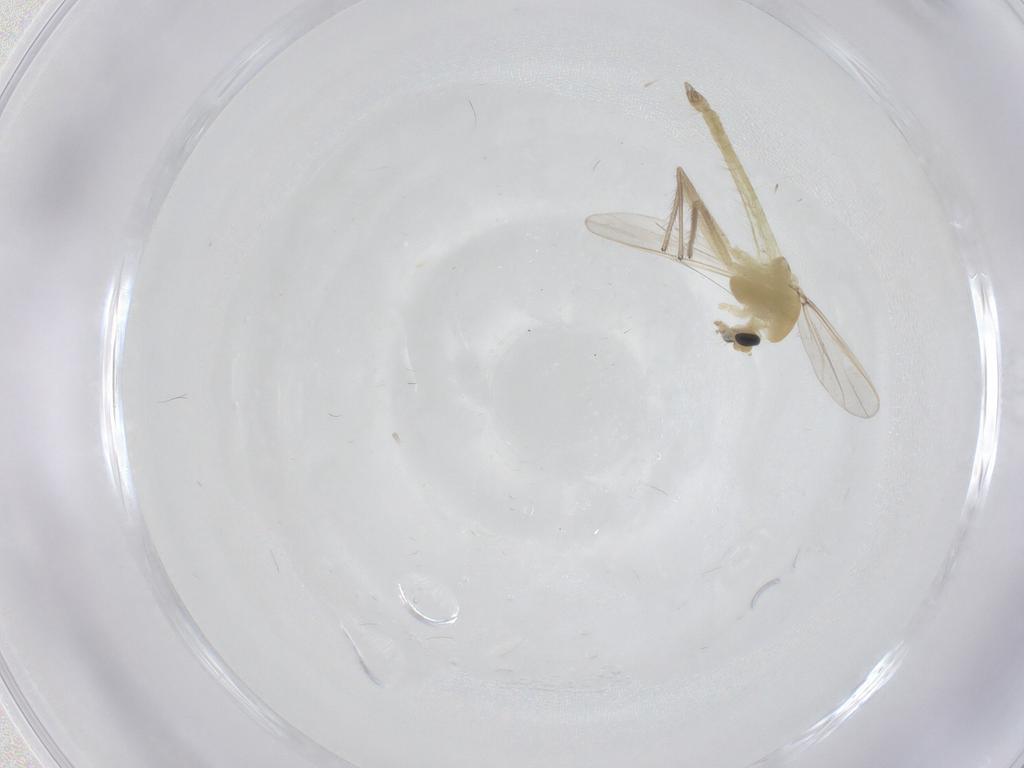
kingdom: Animalia
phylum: Arthropoda
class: Insecta
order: Diptera
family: Chironomidae
